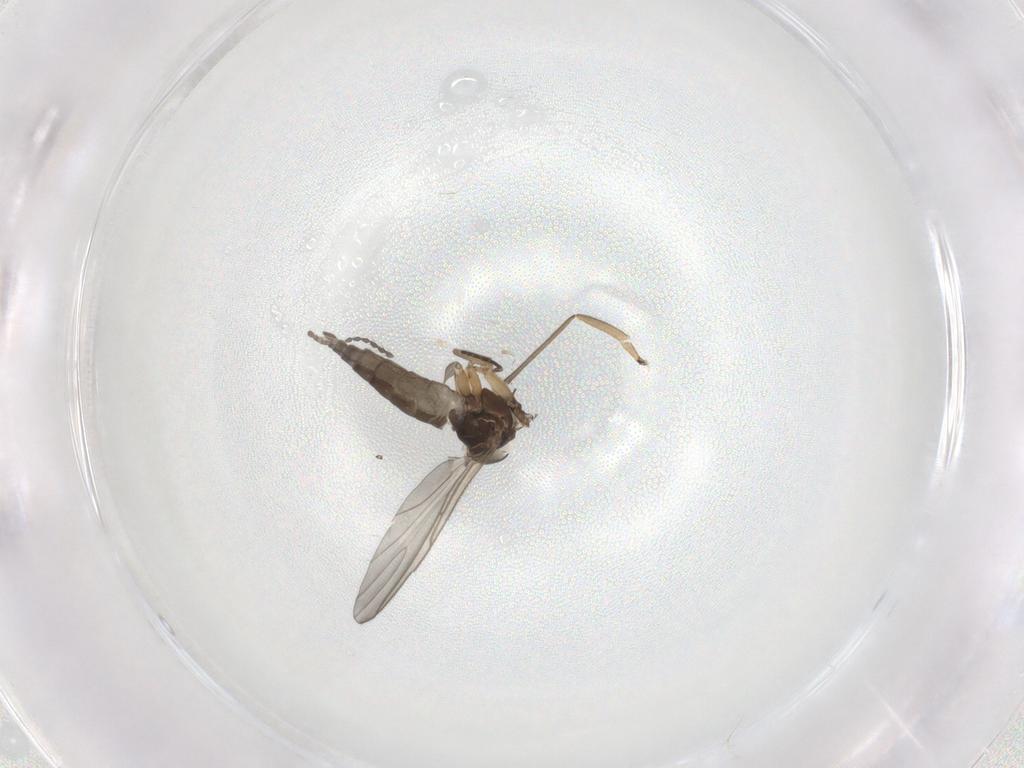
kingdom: Animalia
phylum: Arthropoda
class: Insecta
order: Diptera
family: Sciaridae
